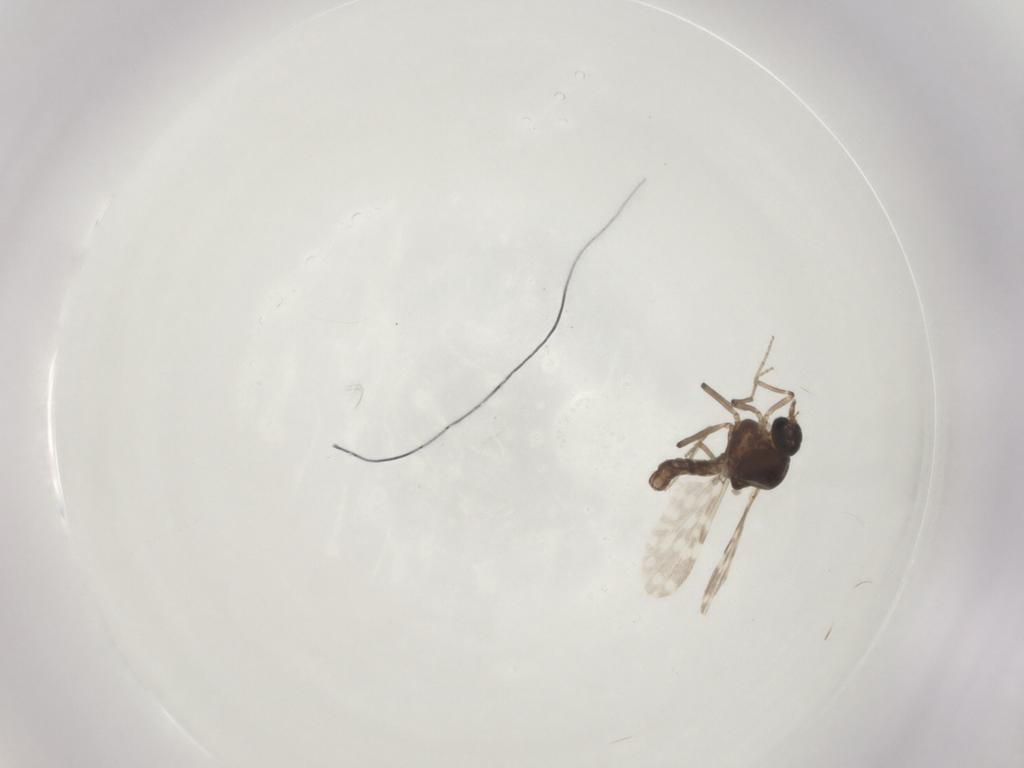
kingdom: Animalia
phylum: Arthropoda
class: Insecta
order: Diptera
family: Ceratopogonidae
